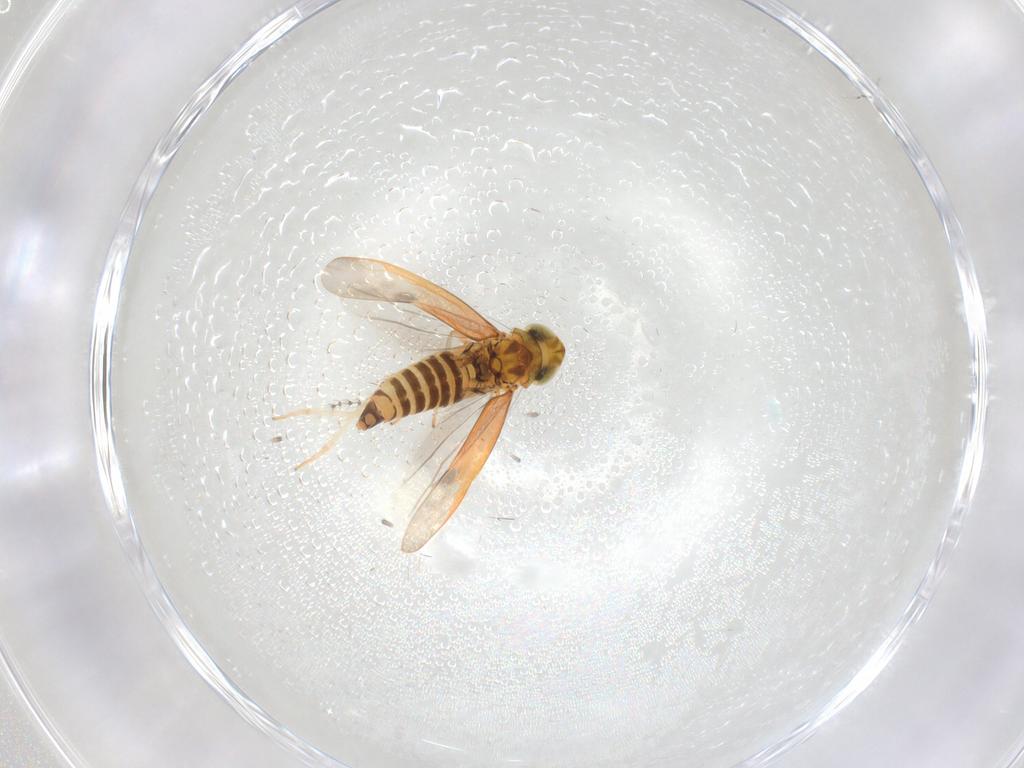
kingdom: Animalia
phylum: Arthropoda
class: Insecta
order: Hemiptera
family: Cicadellidae
